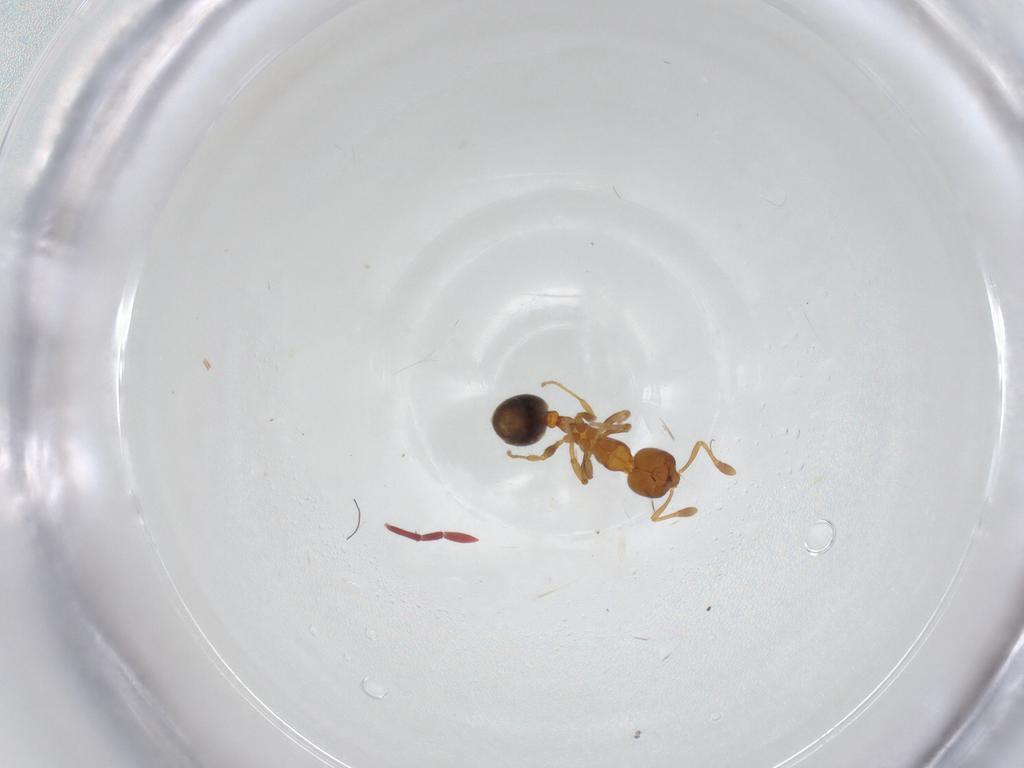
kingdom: Animalia
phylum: Arthropoda
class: Insecta
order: Hymenoptera
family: Formicidae
